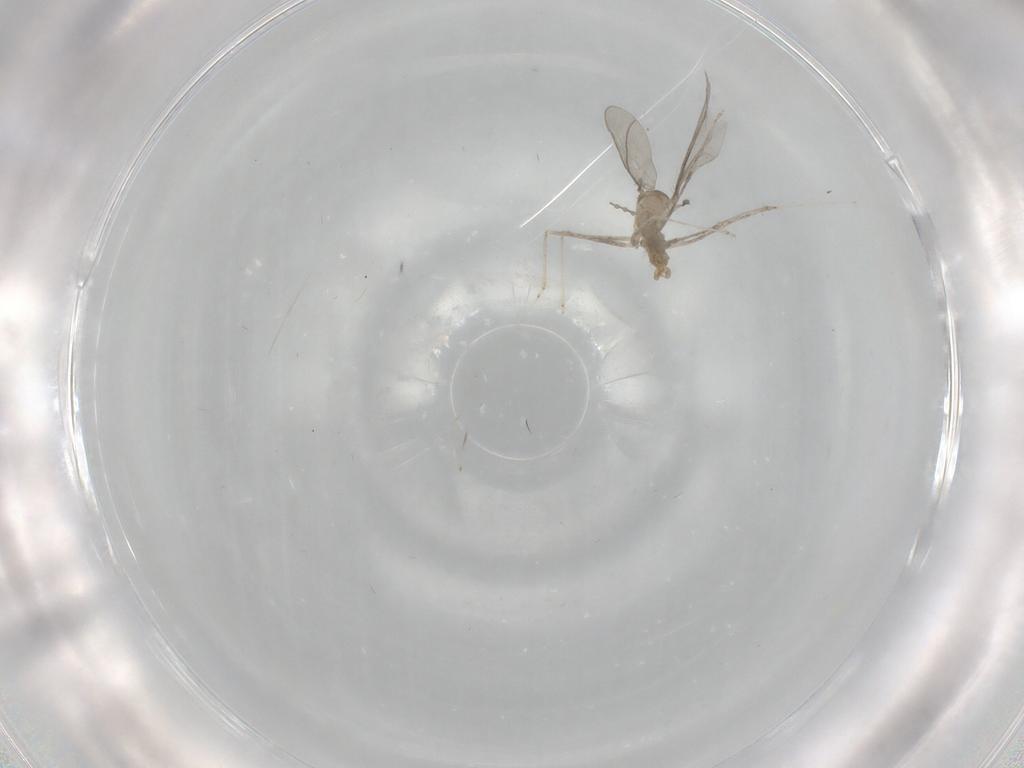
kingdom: Animalia
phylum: Arthropoda
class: Insecta
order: Diptera
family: Cecidomyiidae
